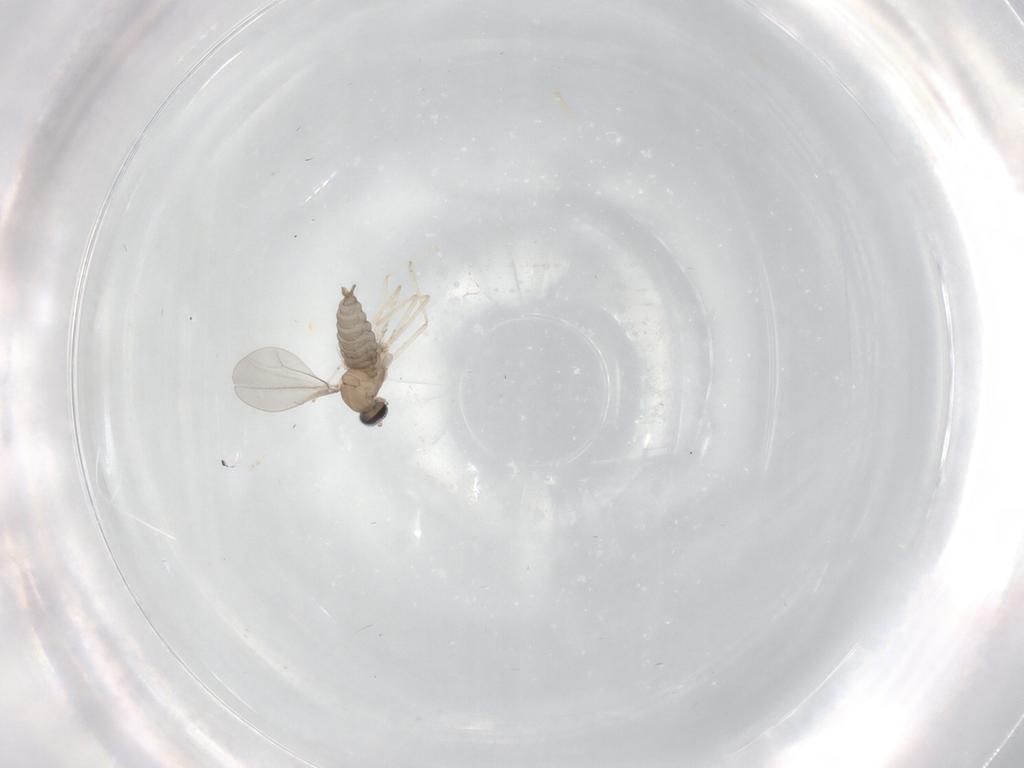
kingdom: Animalia
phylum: Arthropoda
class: Insecta
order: Diptera
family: Ceratopogonidae
